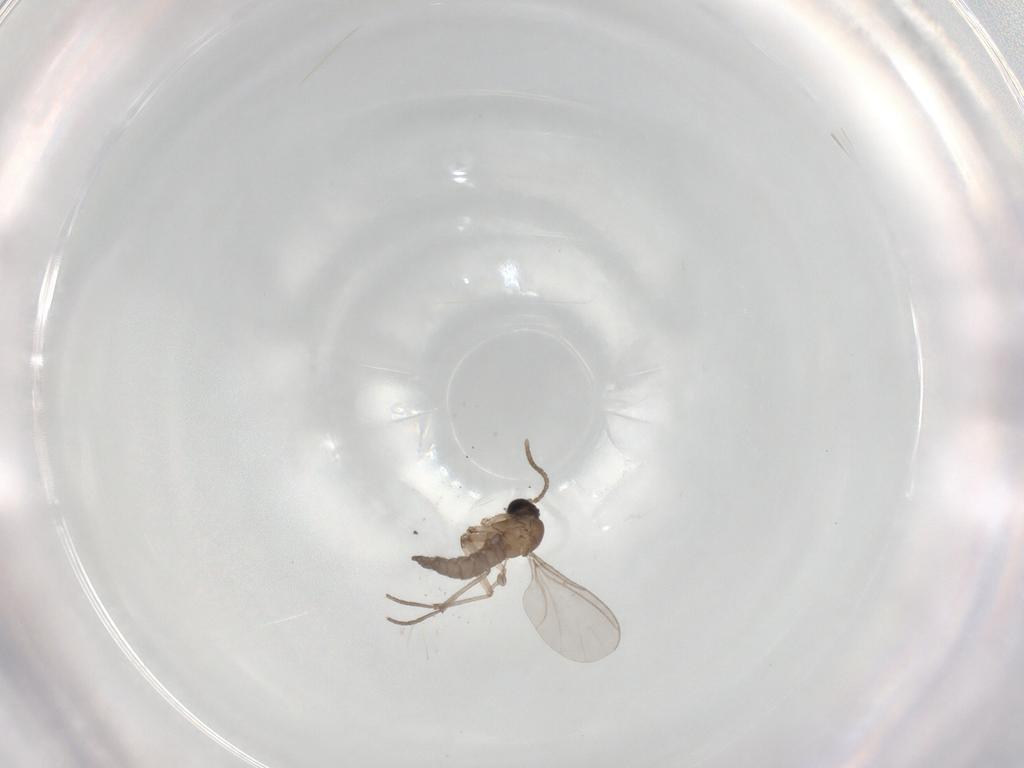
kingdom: Animalia
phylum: Arthropoda
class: Insecta
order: Diptera
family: Sciaridae
